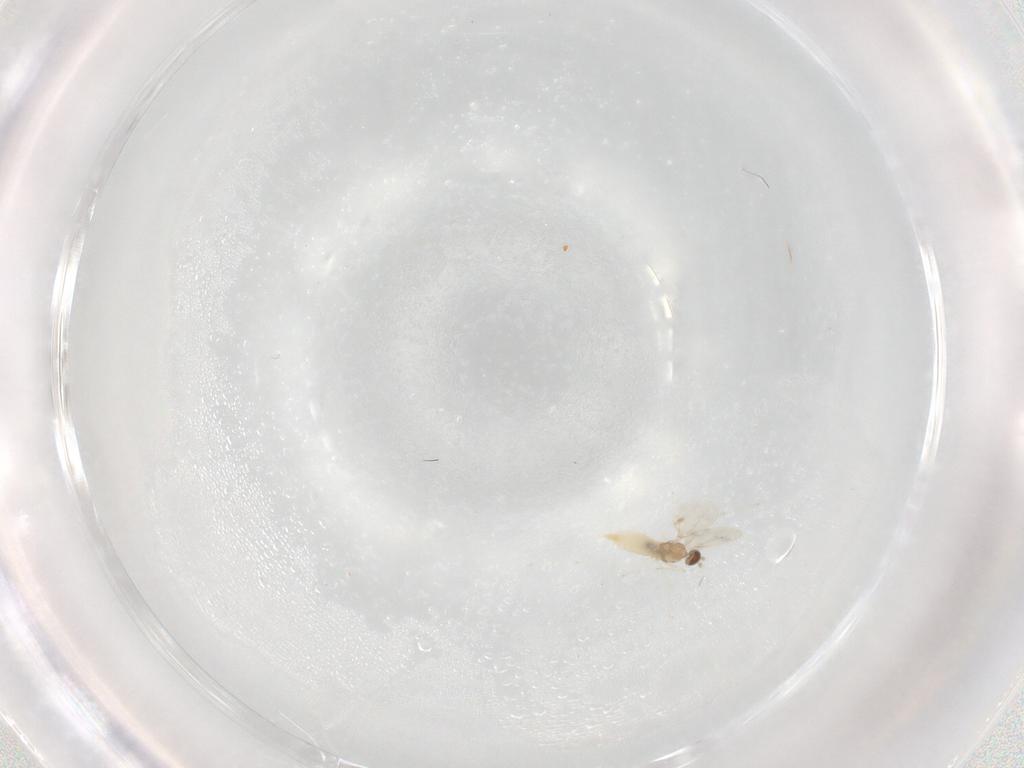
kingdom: Animalia
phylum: Arthropoda
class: Insecta
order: Diptera
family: Cecidomyiidae
